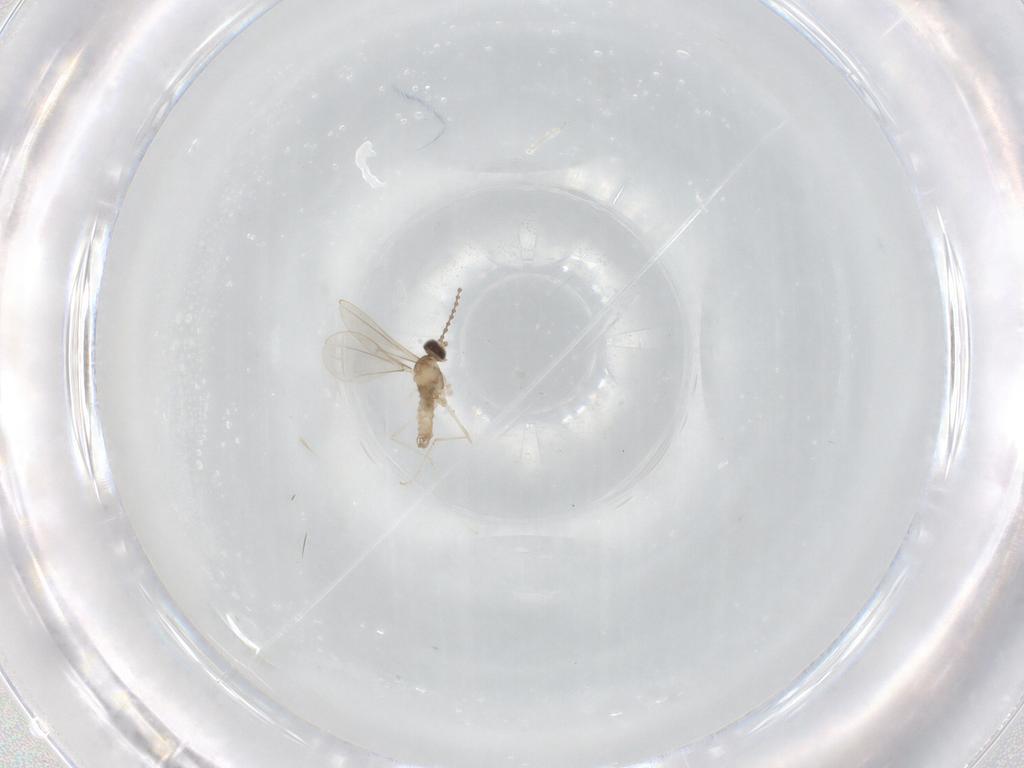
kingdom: Animalia
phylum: Arthropoda
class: Insecta
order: Diptera
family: Cecidomyiidae
